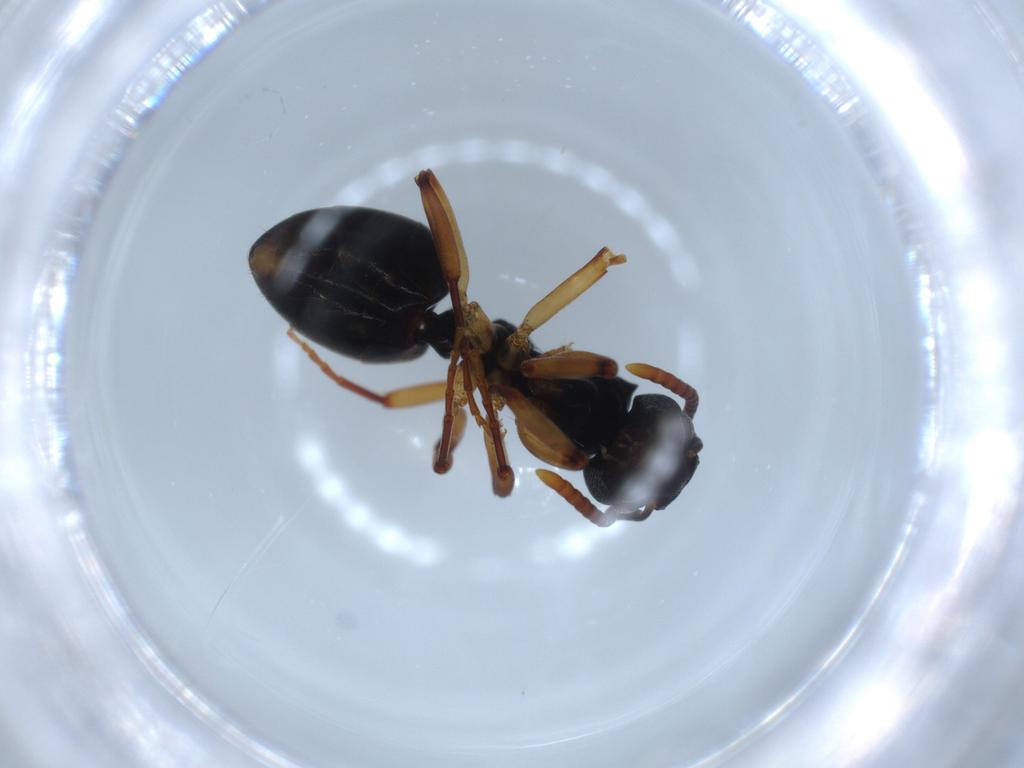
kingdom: Animalia
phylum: Arthropoda
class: Insecta
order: Hymenoptera
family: Formicidae
